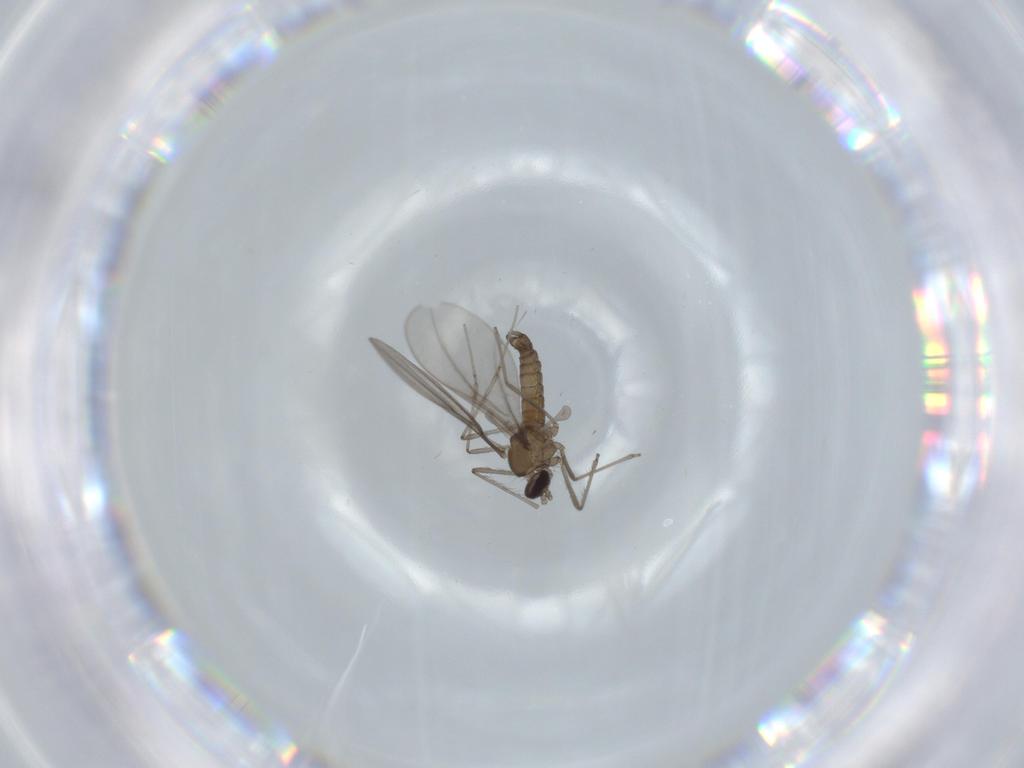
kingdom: Animalia
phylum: Arthropoda
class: Insecta
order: Diptera
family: Cecidomyiidae
